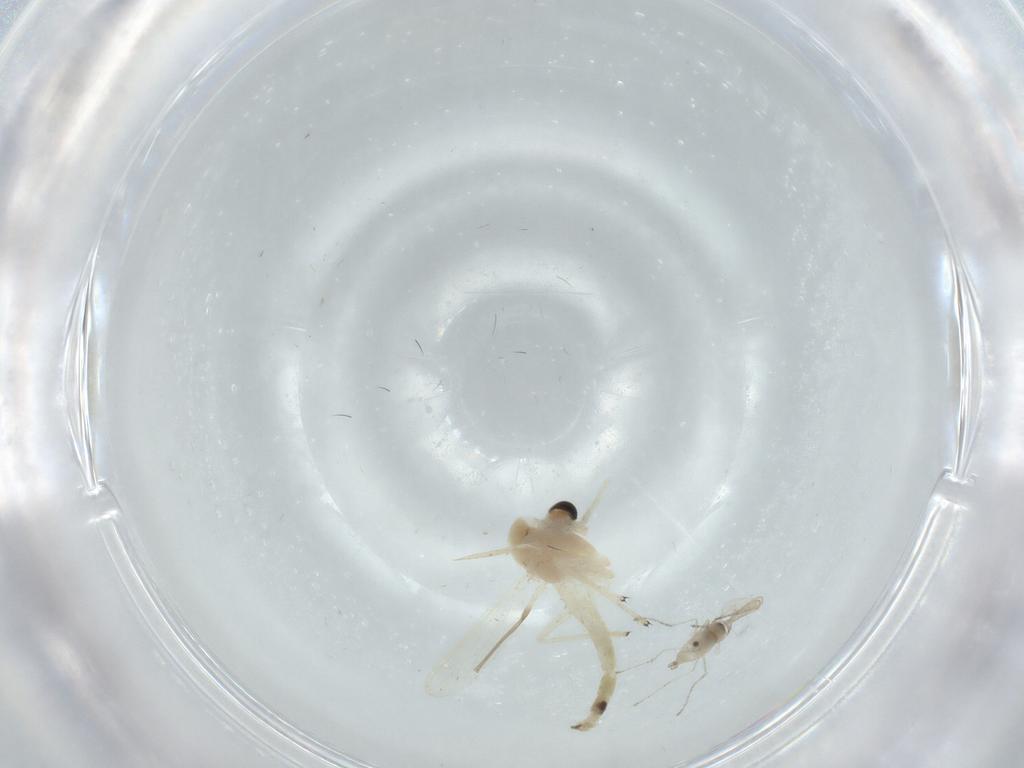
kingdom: Animalia
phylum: Arthropoda
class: Insecta
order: Diptera
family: Chironomidae
